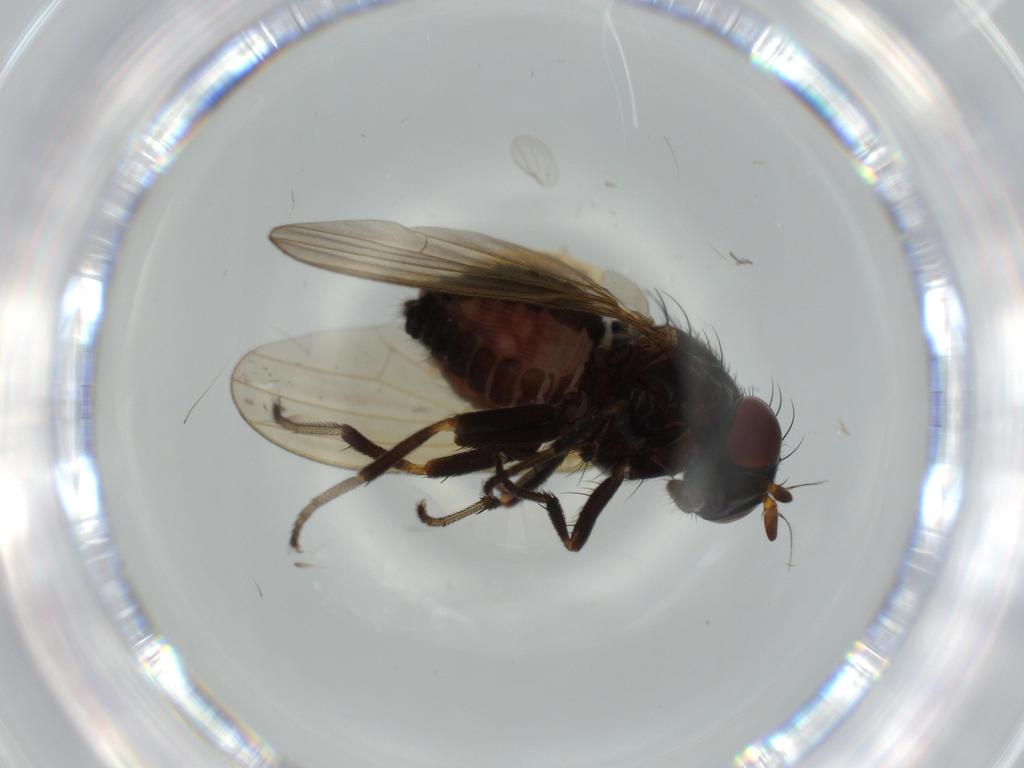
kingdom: Animalia
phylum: Arthropoda
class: Insecta
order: Diptera
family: Lauxaniidae
